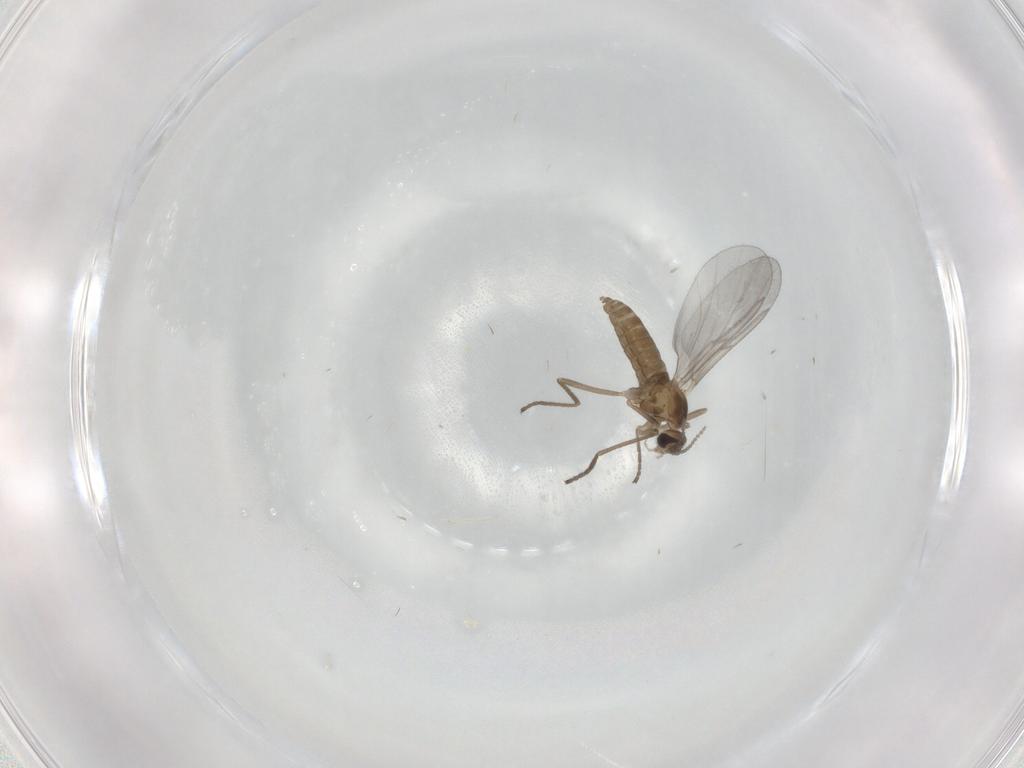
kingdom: Animalia
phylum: Arthropoda
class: Insecta
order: Diptera
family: Cecidomyiidae
